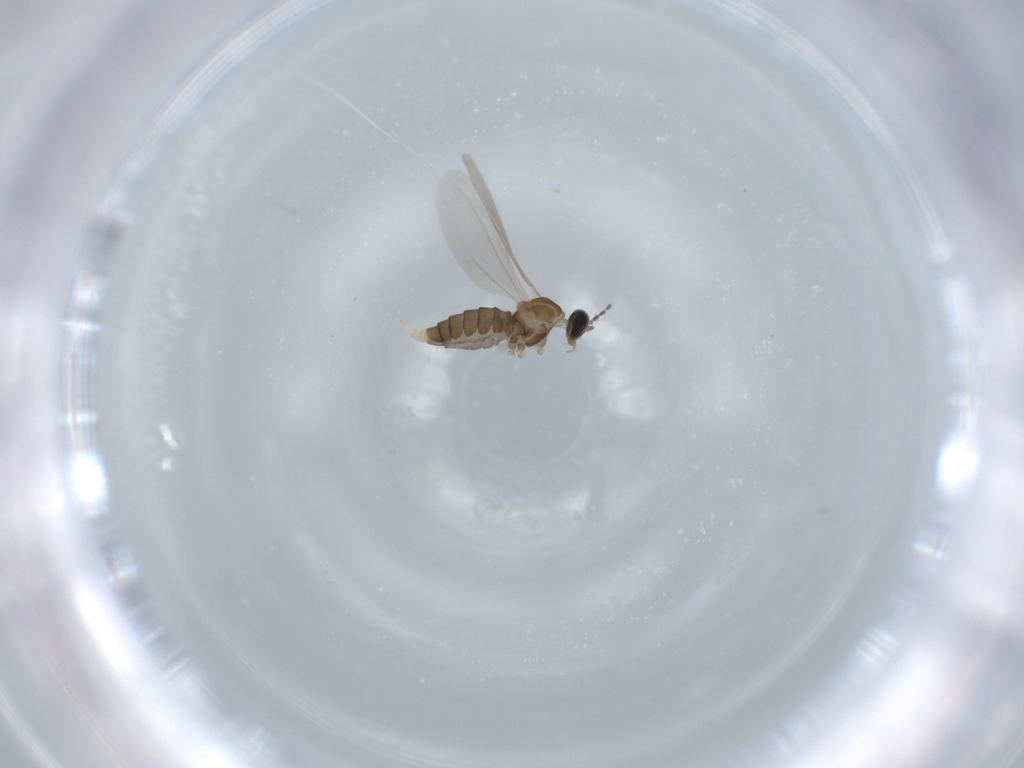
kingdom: Animalia
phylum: Arthropoda
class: Insecta
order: Diptera
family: Cecidomyiidae
